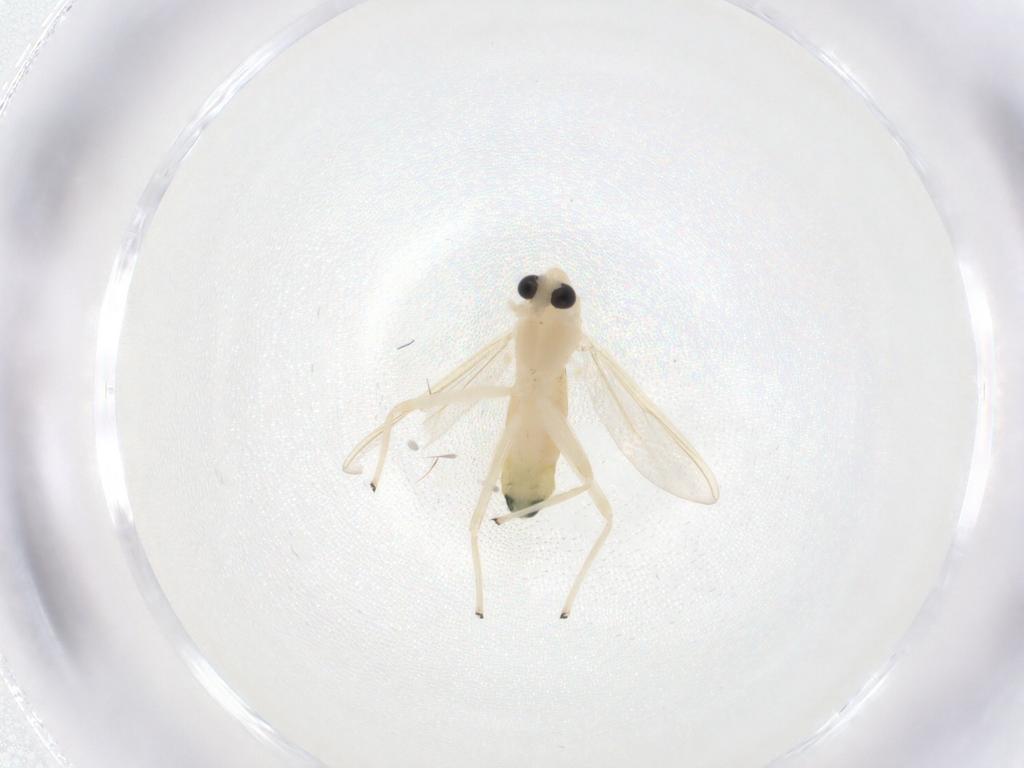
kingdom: Animalia
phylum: Arthropoda
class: Insecta
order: Diptera
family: Chironomidae
